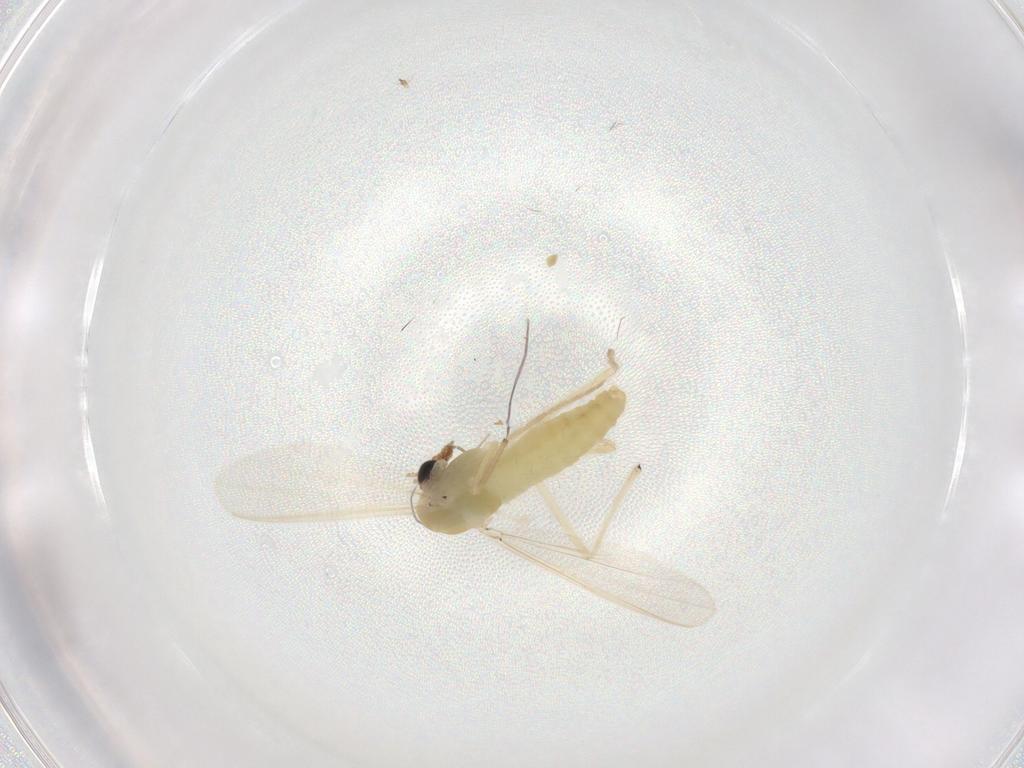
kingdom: Animalia
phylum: Arthropoda
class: Insecta
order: Diptera
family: Chironomidae
